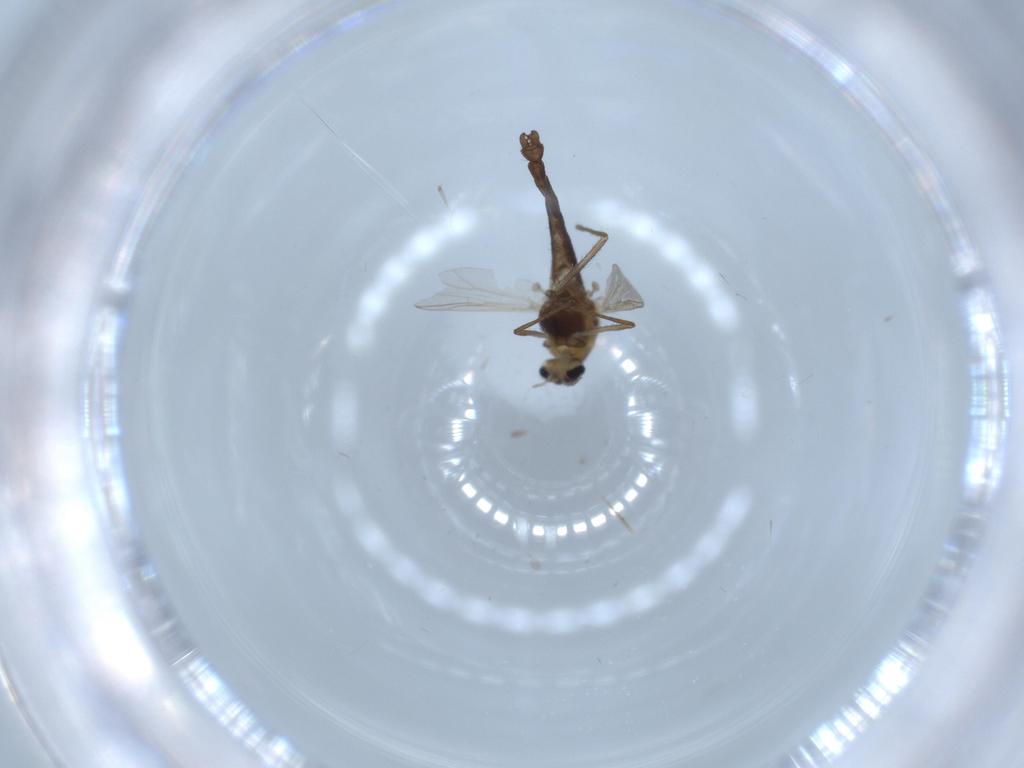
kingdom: Animalia
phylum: Arthropoda
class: Insecta
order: Diptera
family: Chironomidae
